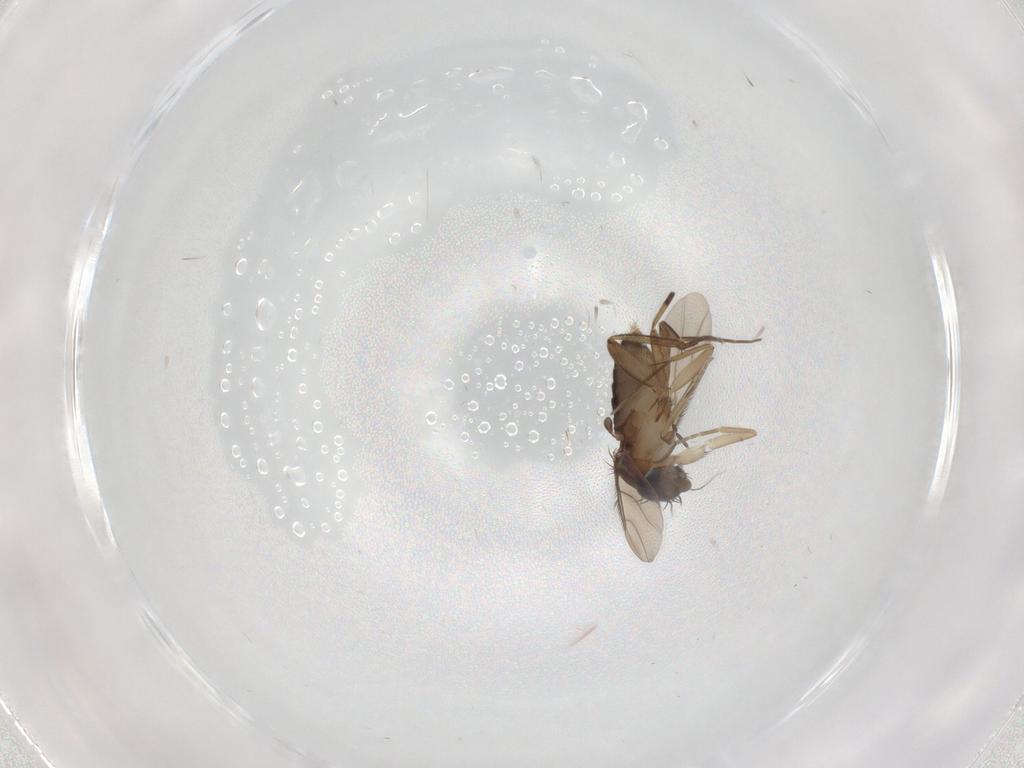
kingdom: Animalia
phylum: Arthropoda
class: Insecta
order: Diptera
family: Phoridae
